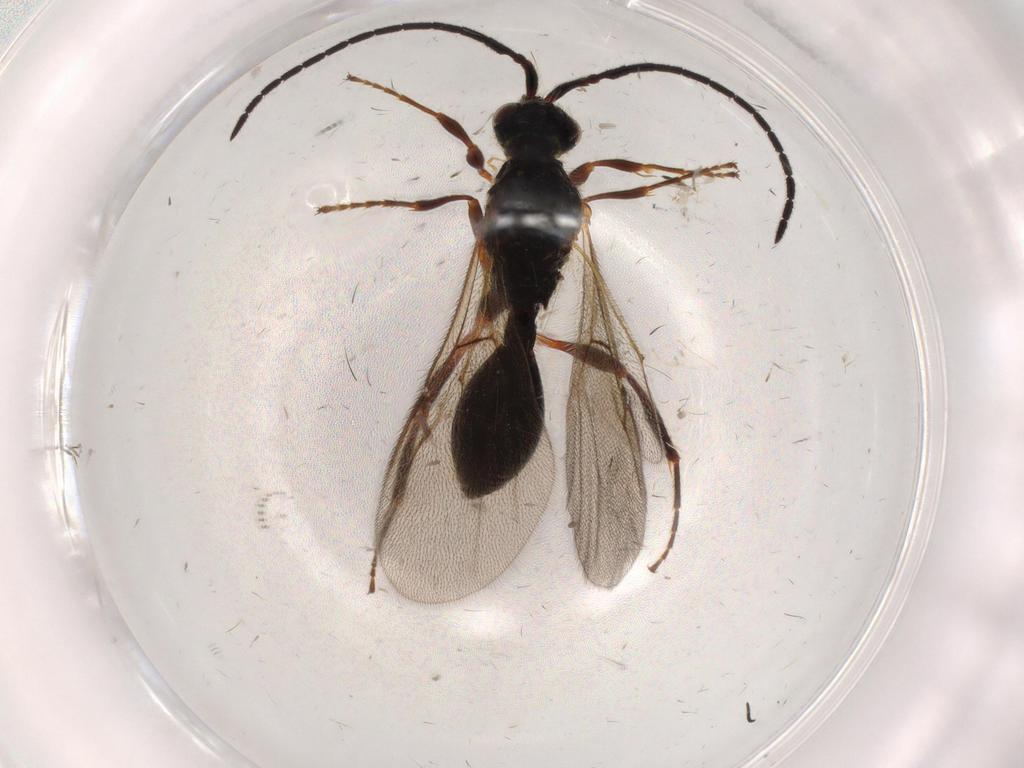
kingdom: Animalia
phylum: Arthropoda
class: Insecta
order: Hymenoptera
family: Diapriidae
